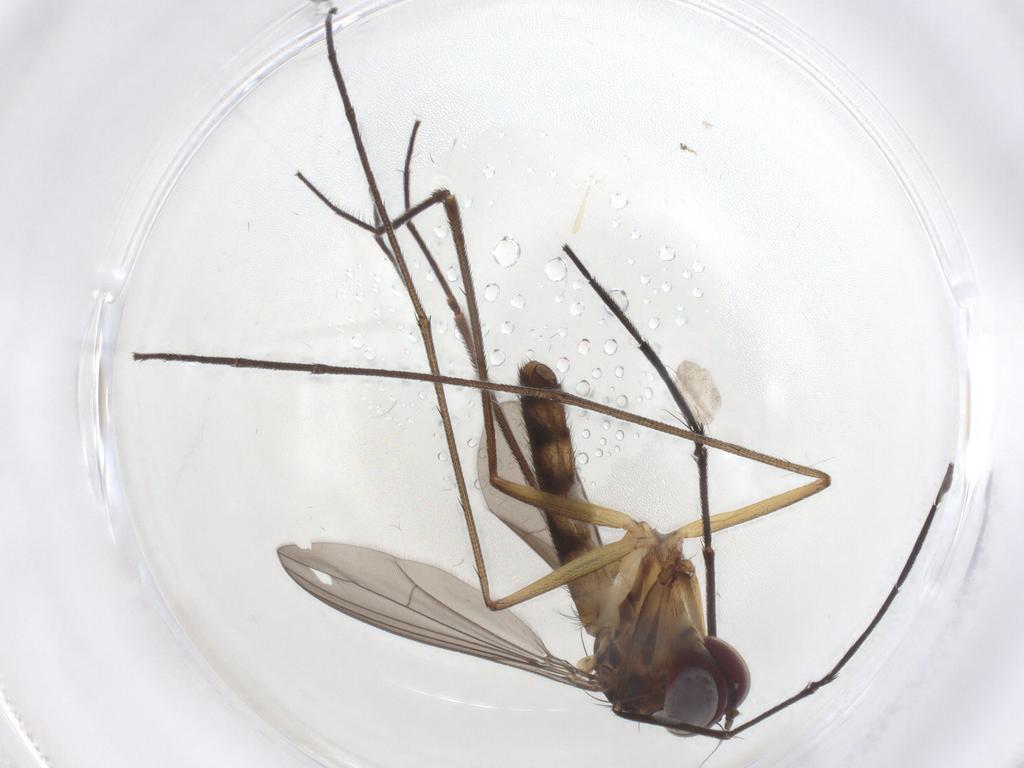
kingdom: Animalia
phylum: Arthropoda
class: Insecta
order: Diptera
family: Dolichopodidae
